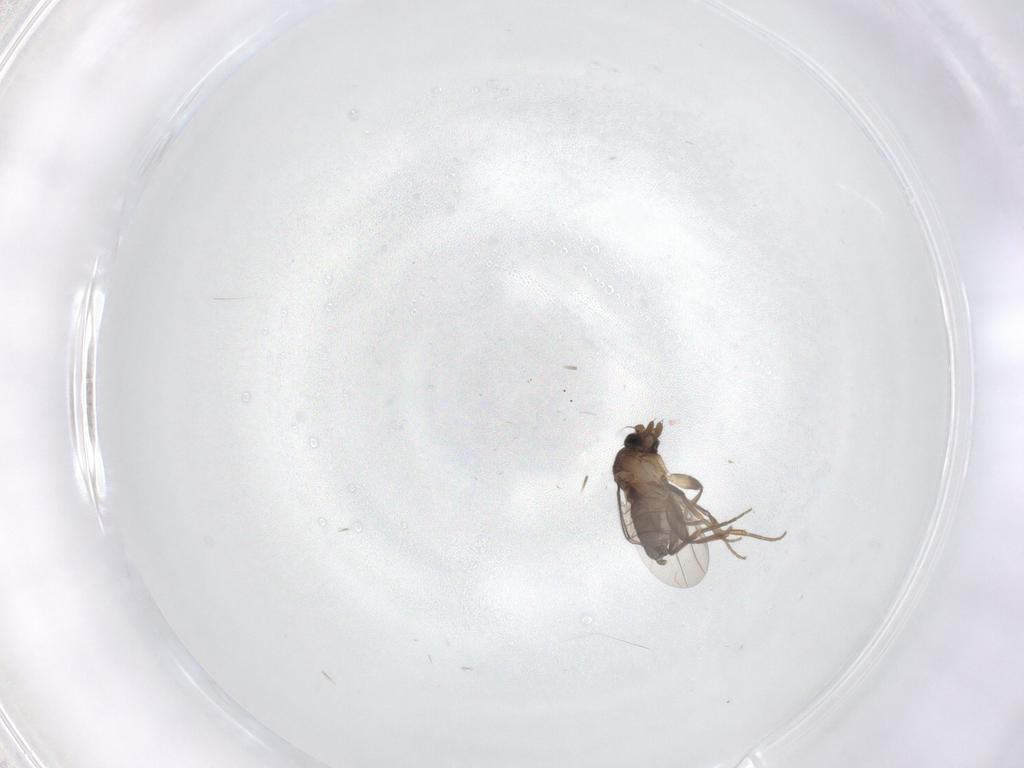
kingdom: Animalia
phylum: Arthropoda
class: Insecta
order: Diptera
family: Phoridae
